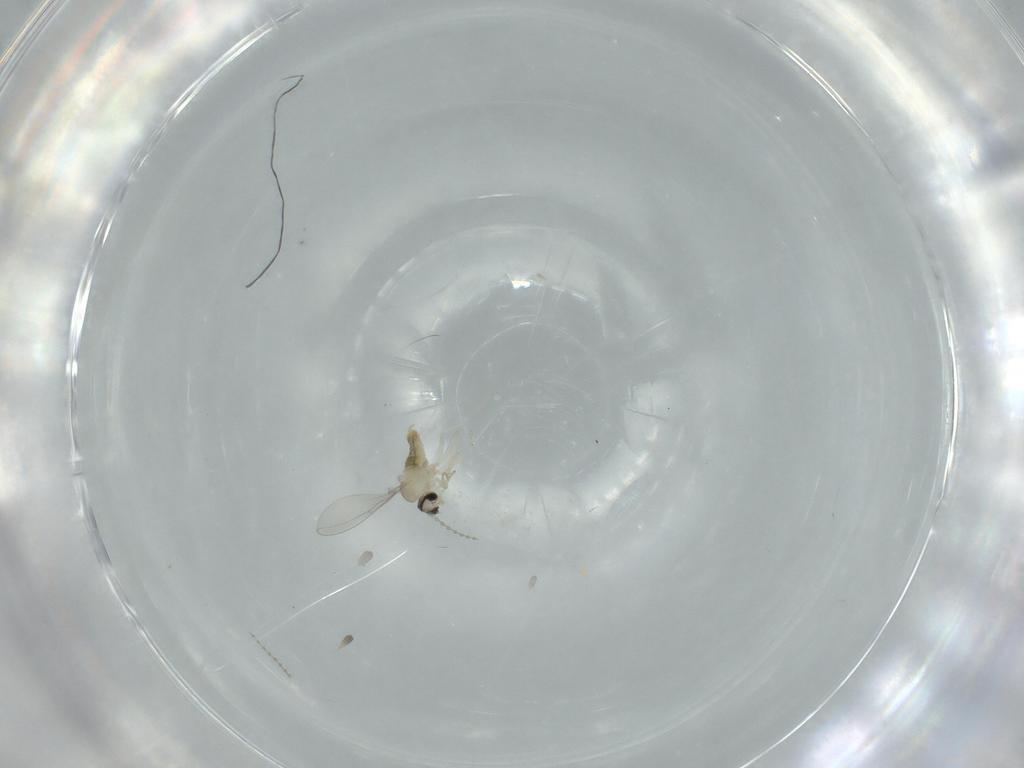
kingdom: Animalia
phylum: Arthropoda
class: Insecta
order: Diptera
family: Cecidomyiidae
